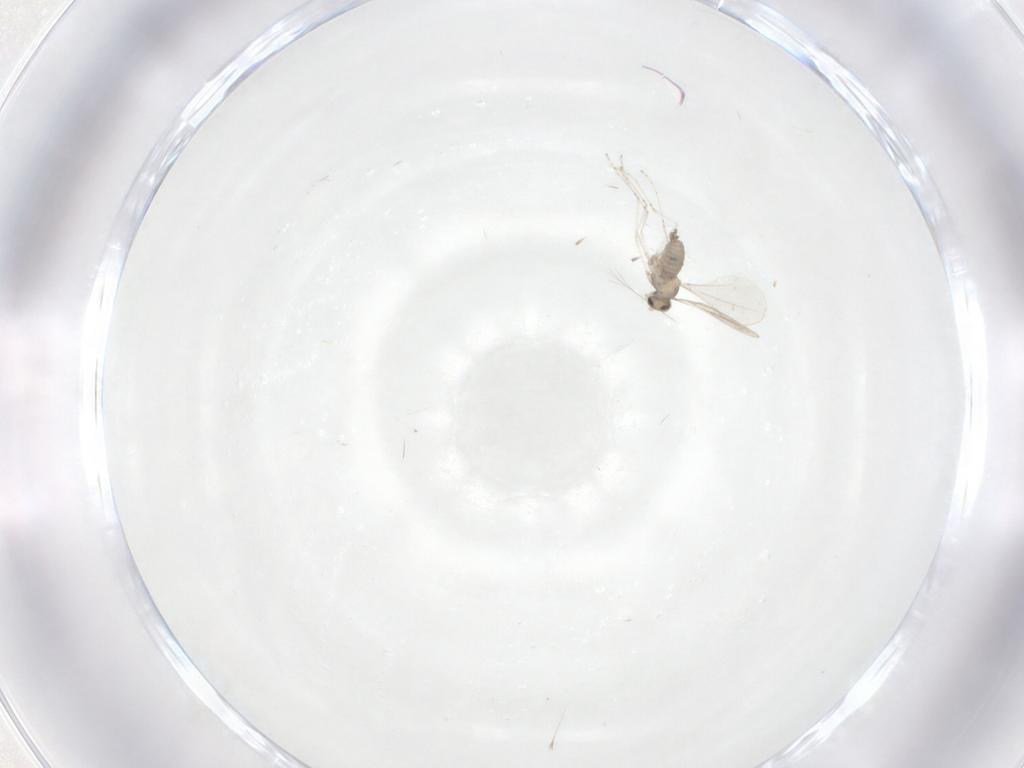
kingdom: Animalia
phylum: Arthropoda
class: Insecta
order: Diptera
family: Cecidomyiidae
